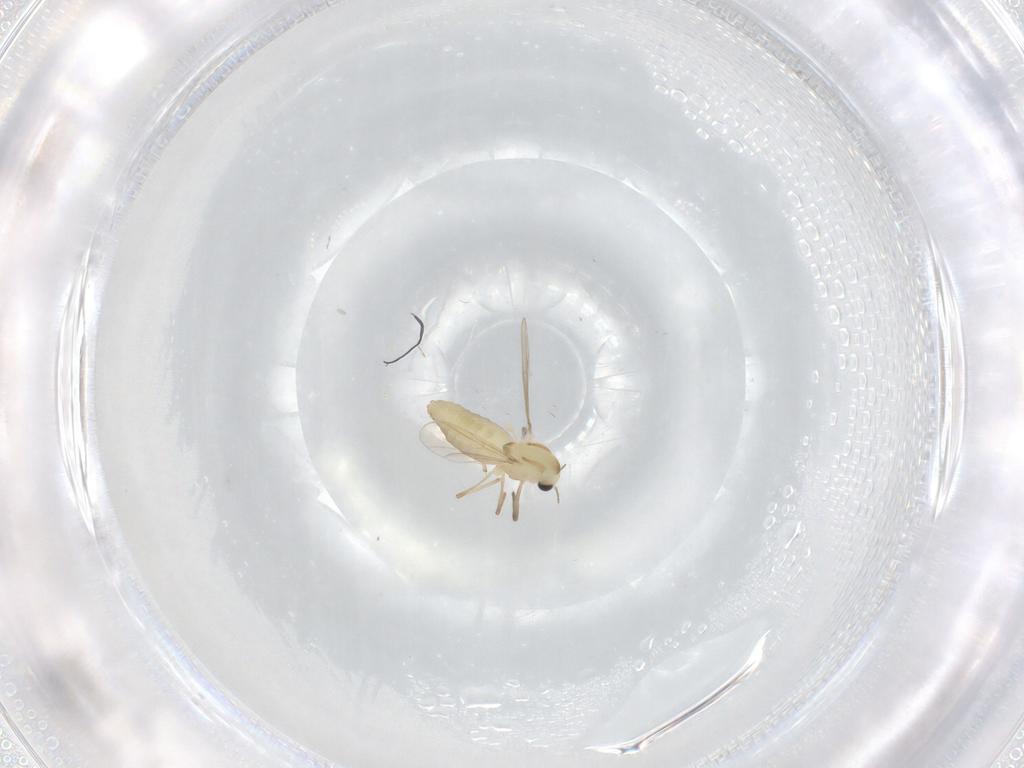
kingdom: Animalia
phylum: Arthropoda
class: Insecta
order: Diptera
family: Chironomidae
